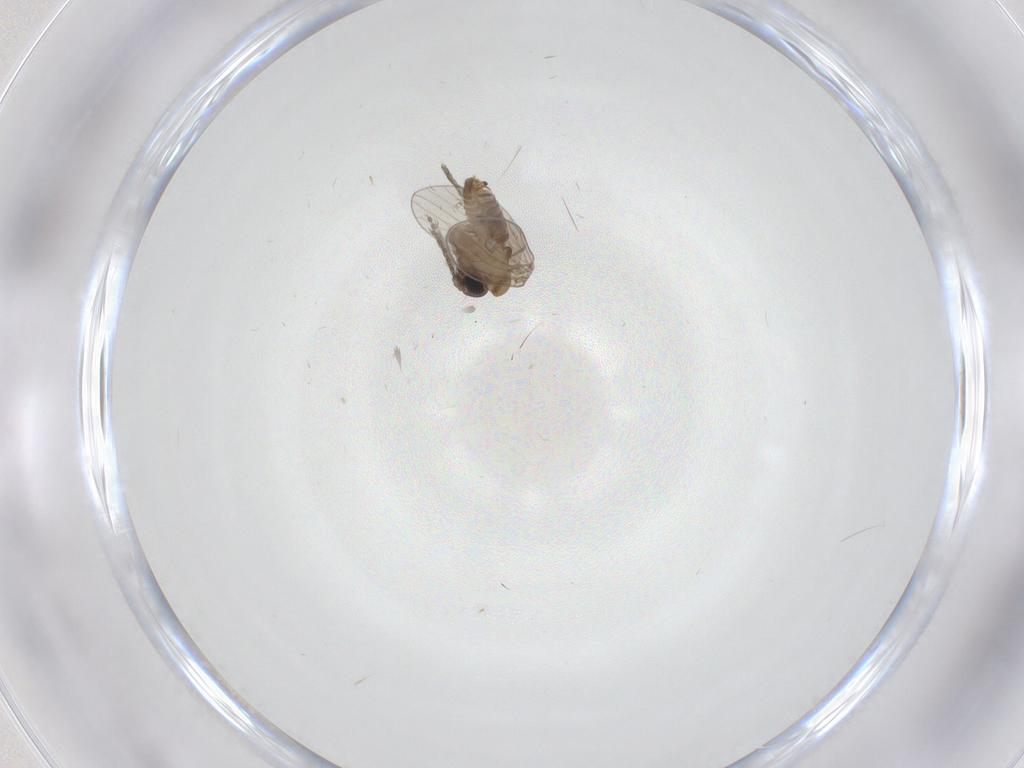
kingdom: Animalia
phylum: Arthropoda
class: Insecta
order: Diptera
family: Psychodidae
